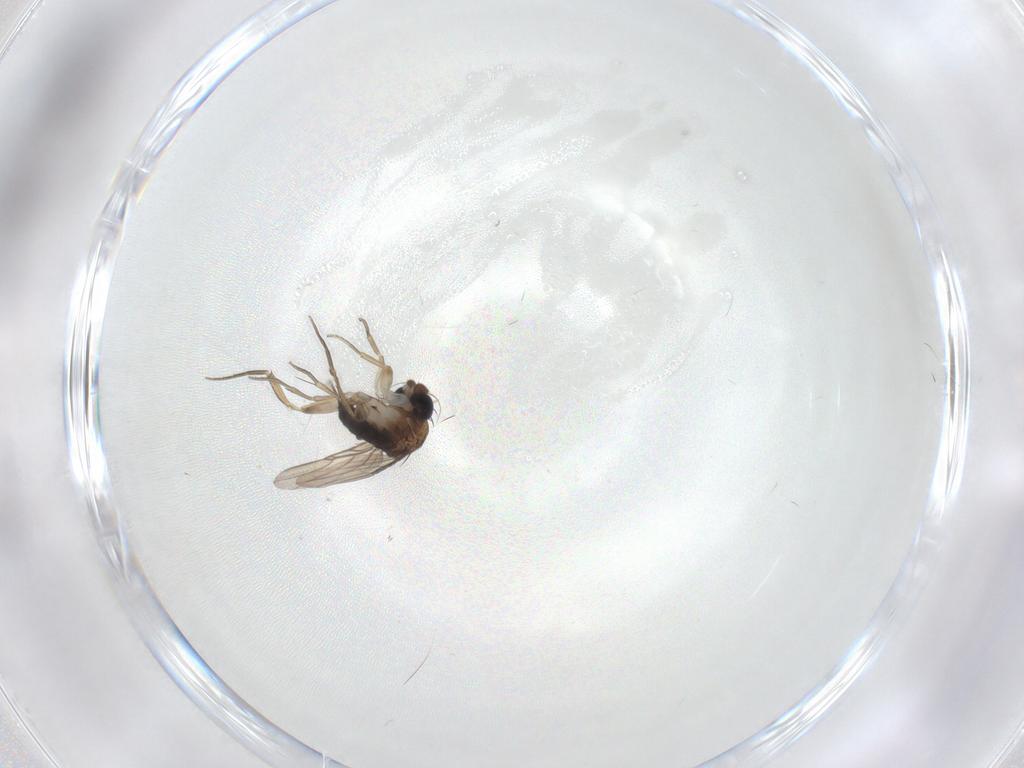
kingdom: Animalia
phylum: Arthropoda
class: Insecta
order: Diptera
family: Phoridae
